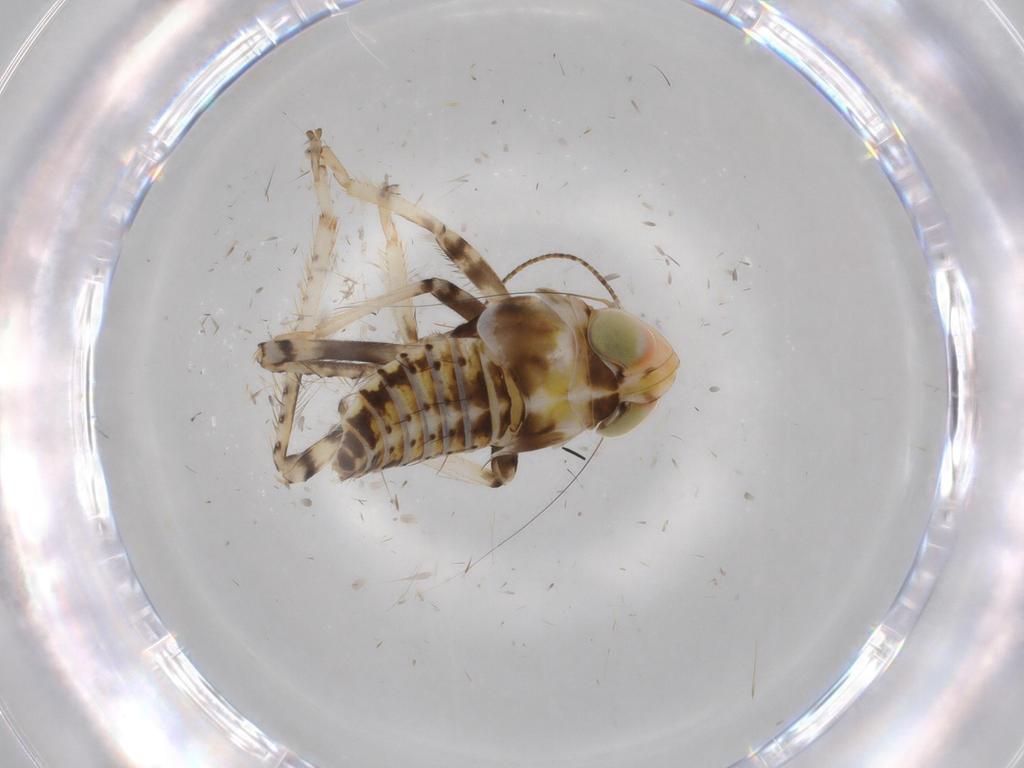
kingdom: Animalia
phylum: Arthropoda
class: Insecta
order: Hemiptera
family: Cicadellidae
